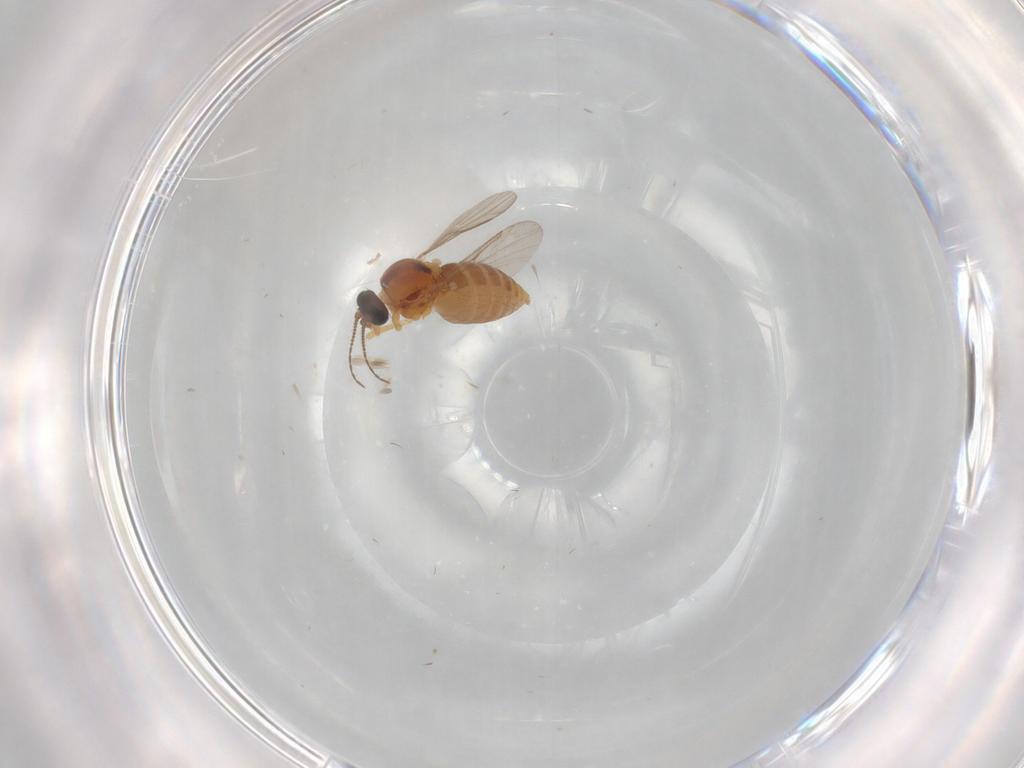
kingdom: Animalia
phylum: Arthropoda
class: Insecta
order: Diptera
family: Ceratopogonidae
